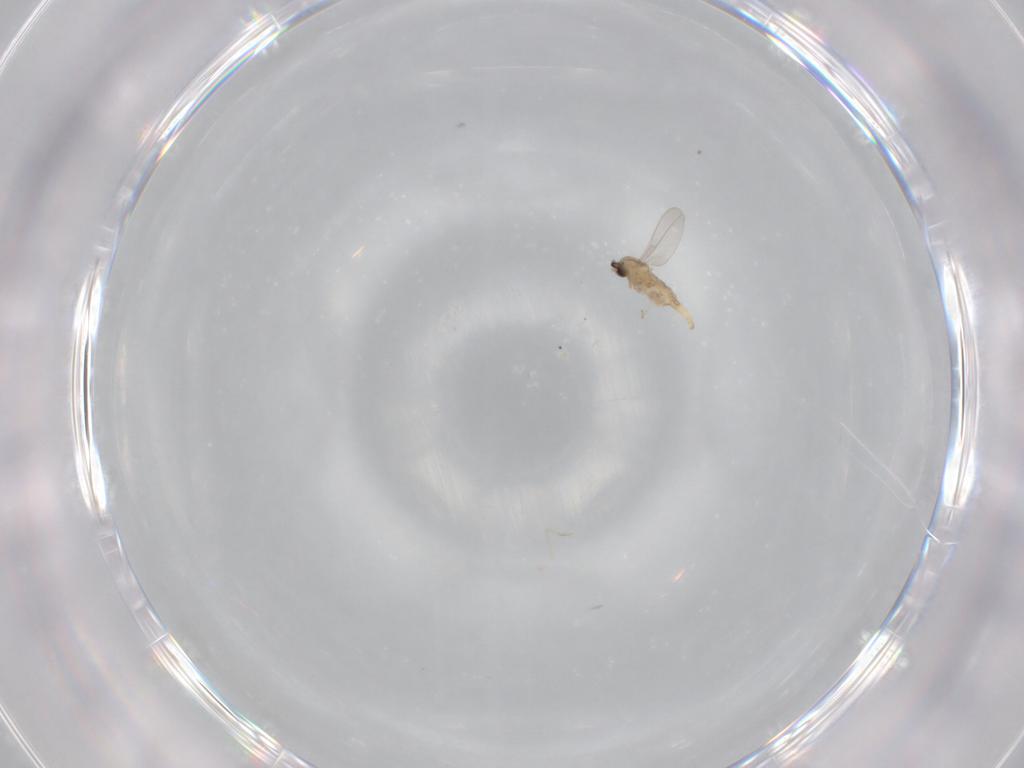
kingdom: Animalia
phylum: Arthropoda
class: Insecta
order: Diptera
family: Cecidomyiidae
